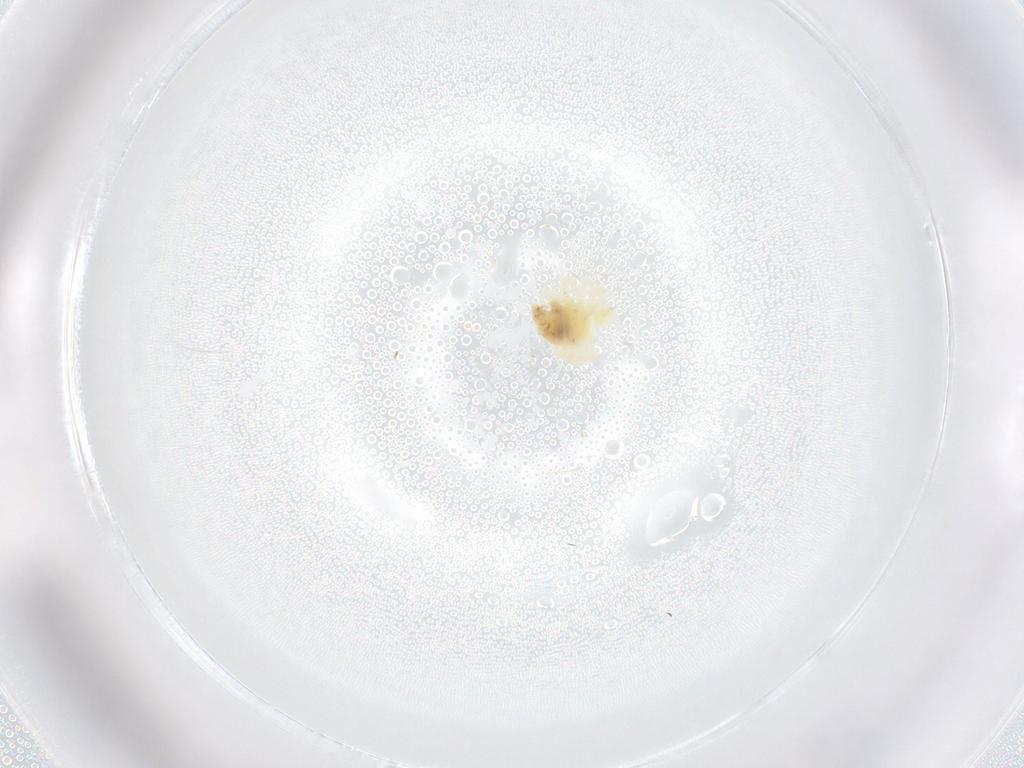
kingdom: Animalia
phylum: Arthropoda
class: Arachnida
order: Trombidiformes
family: Anystidae
